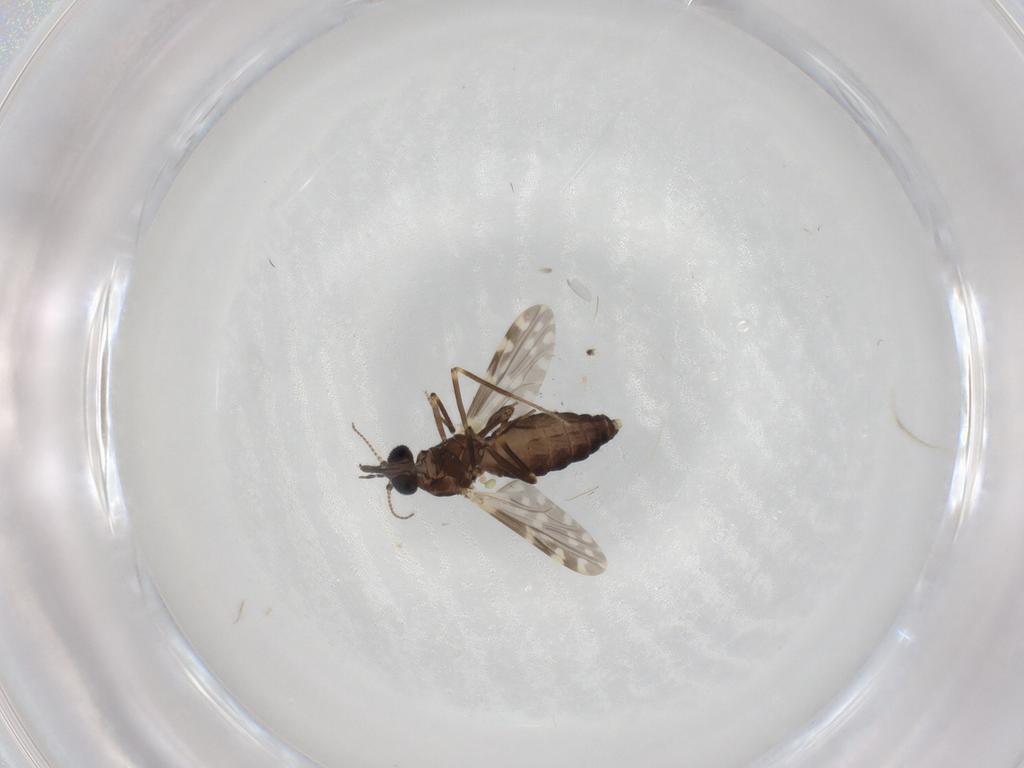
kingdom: Animalia
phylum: Arthropoda
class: Insecta
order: Diptera
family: Ceratopogonidae
